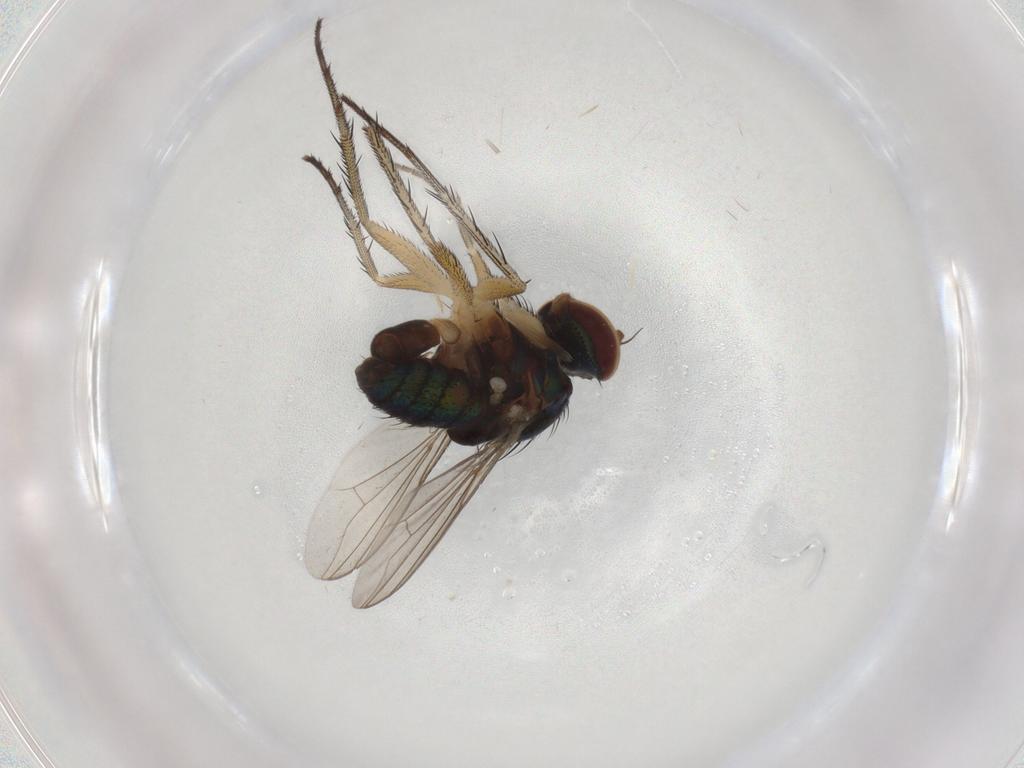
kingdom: Animalia
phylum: Arthropoda
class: Insecta
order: Diptera
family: Dolichopodidae
